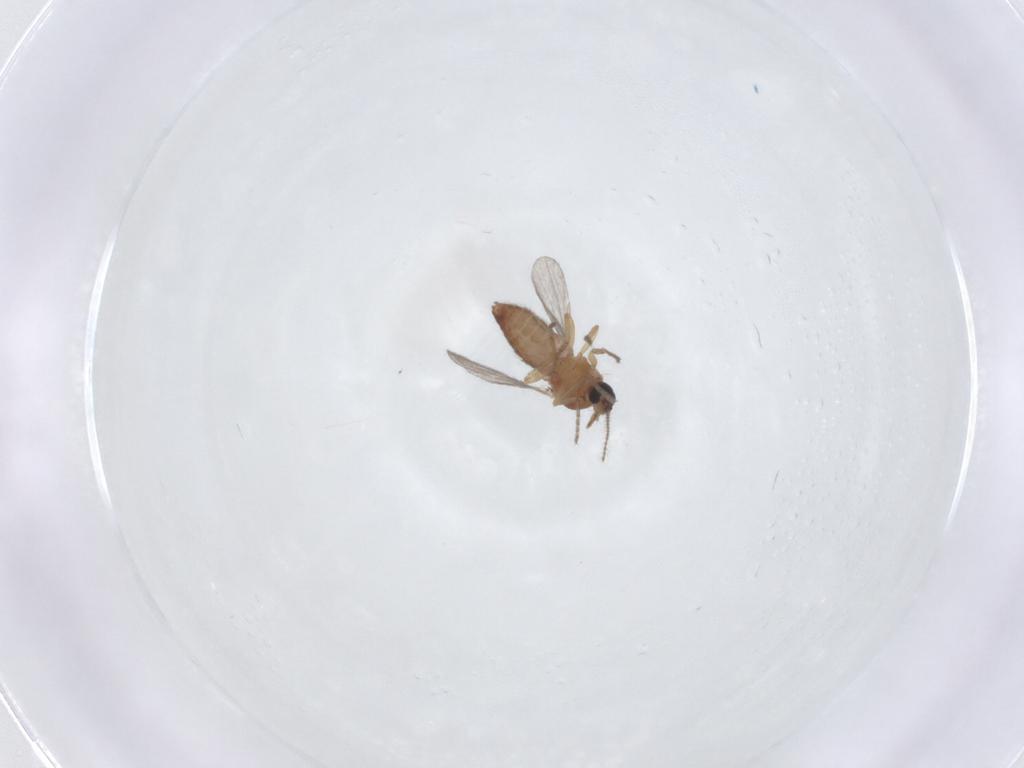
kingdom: Animalia
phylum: Arthropoda
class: Insecta
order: Diptera
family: Ceratopogonidae
